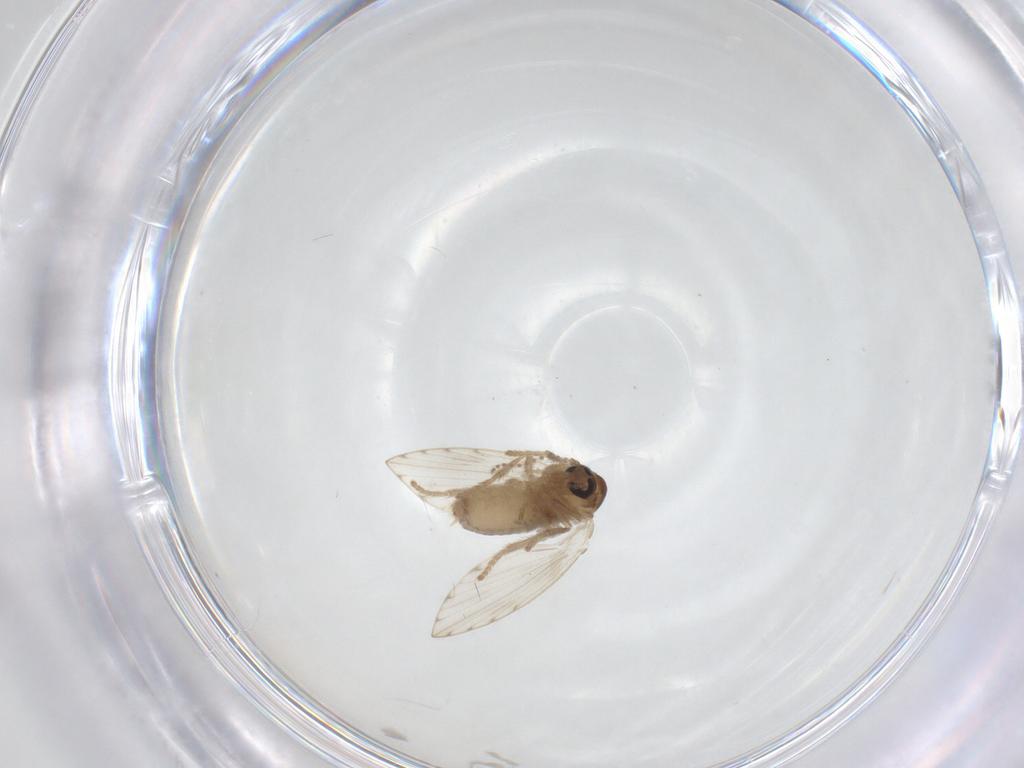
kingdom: Animalia
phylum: Arthropoda
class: Insecta
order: Diptera
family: Psychodidae
